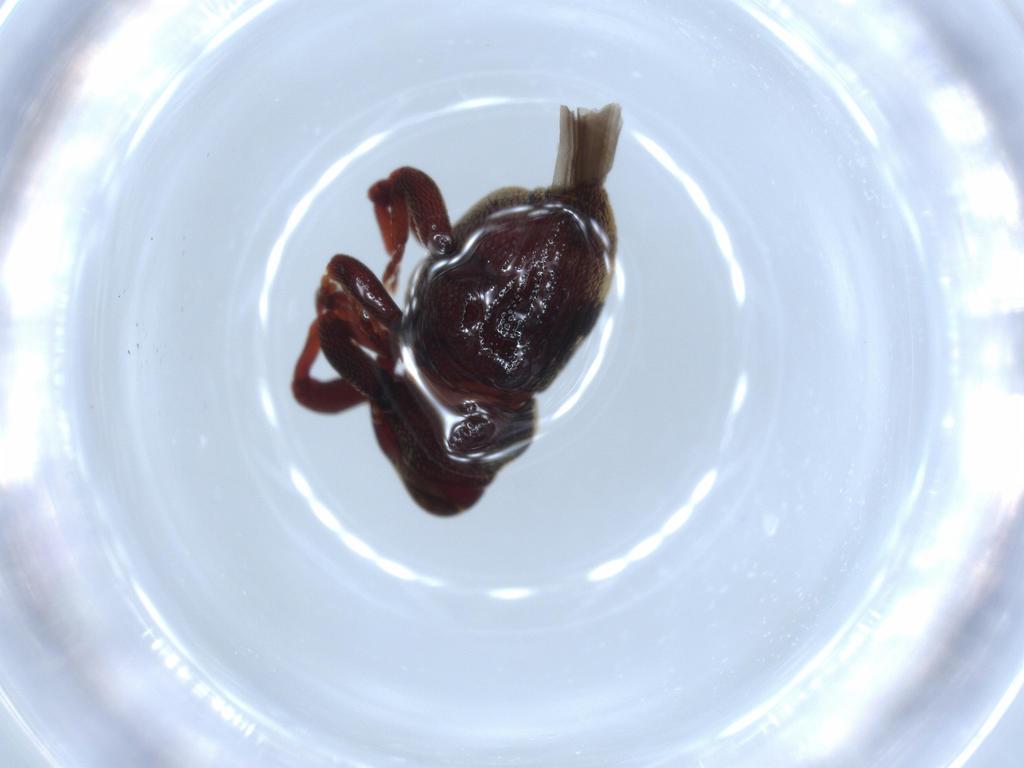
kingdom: Animalia
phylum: Arthropoda
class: Insecta
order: Coleoptera
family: Curculionidae
